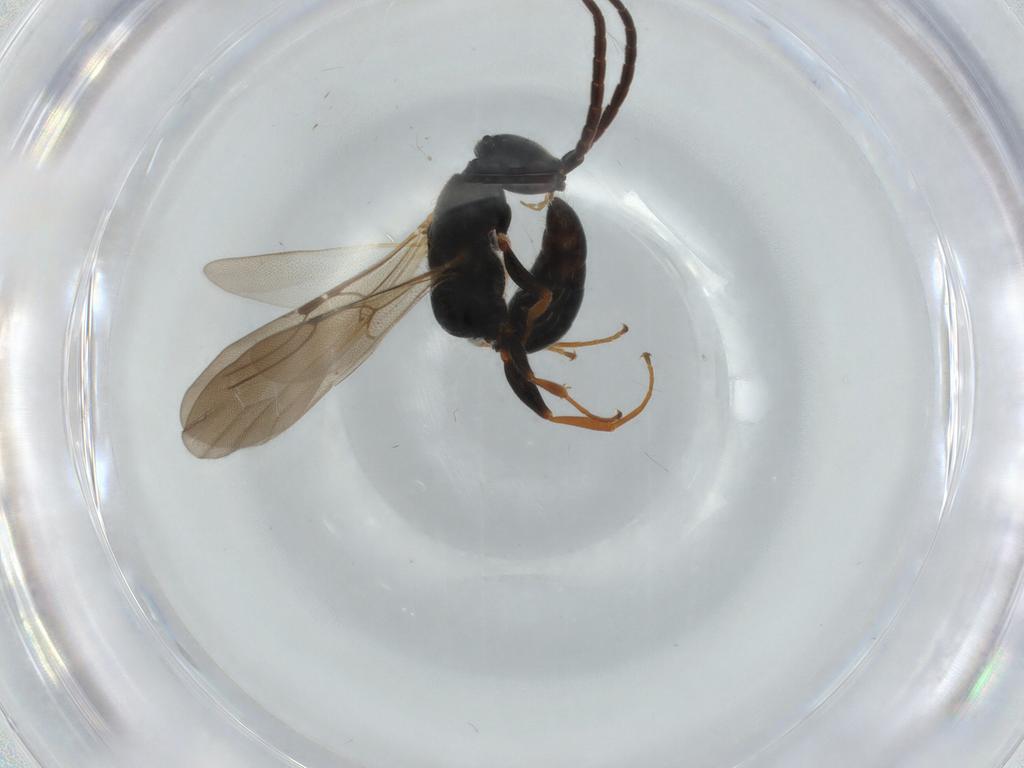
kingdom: Animalia
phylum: Arthropoda
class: Insecta
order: Hymenoptera
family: Bethylidae
